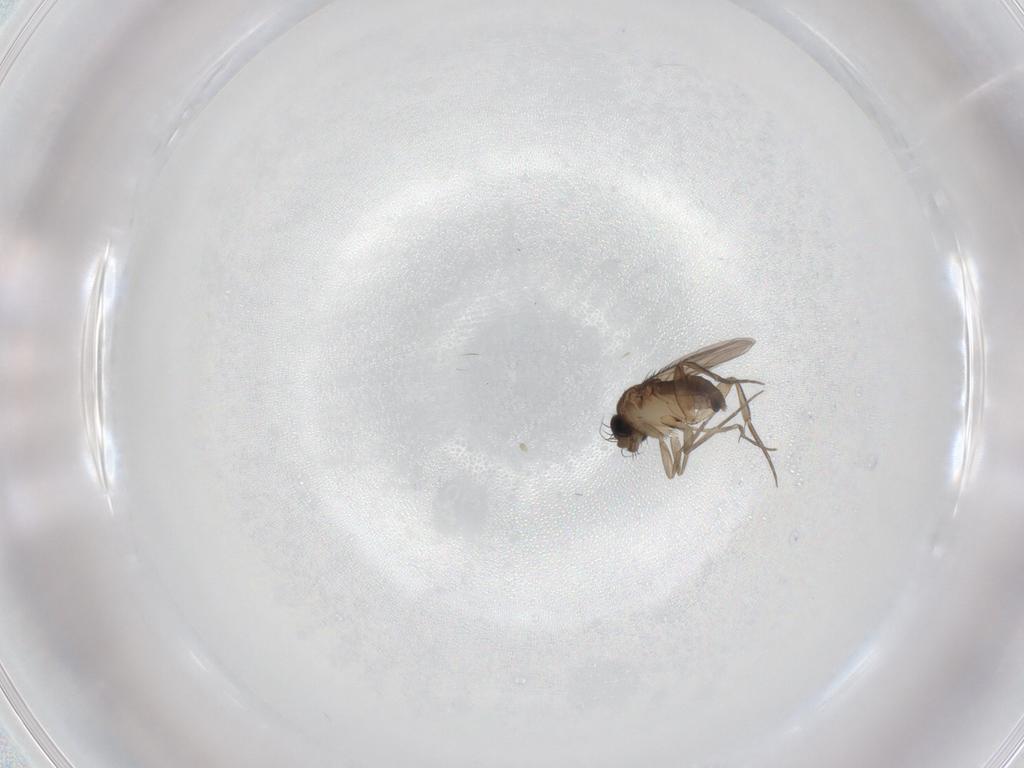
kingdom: Animalia
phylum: Arthropoda
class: Insecta
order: Diptera
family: Phoridae
